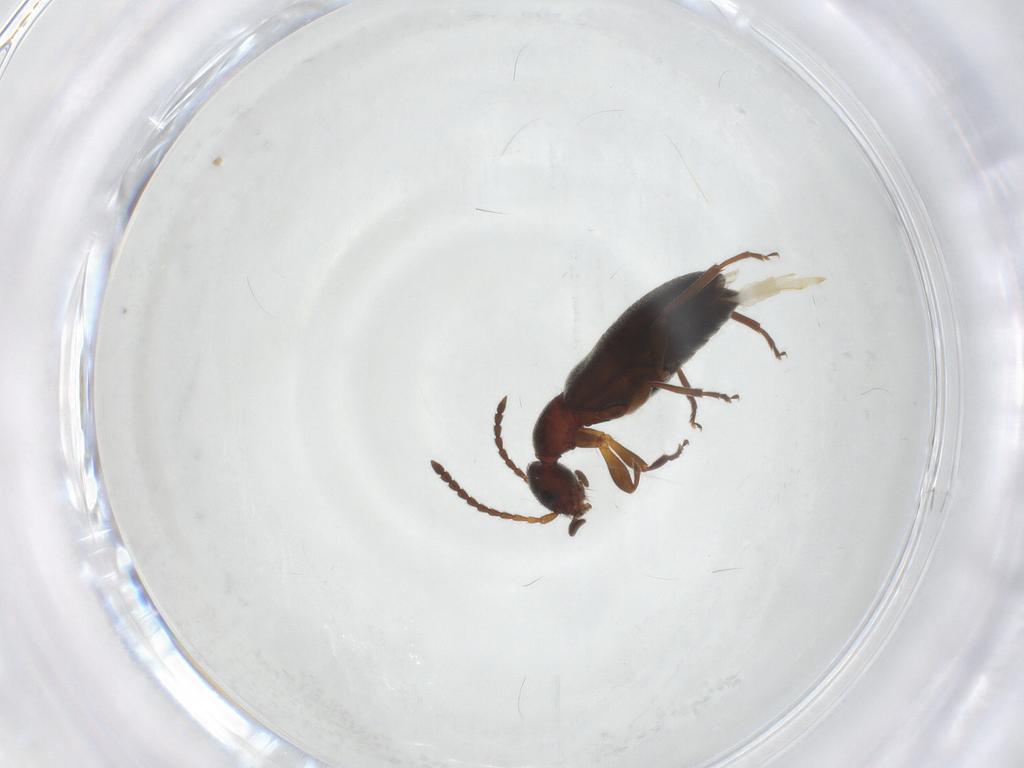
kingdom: Animalia
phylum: Arthropoda
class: Insecta
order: Coleoptera
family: Anthicidae
